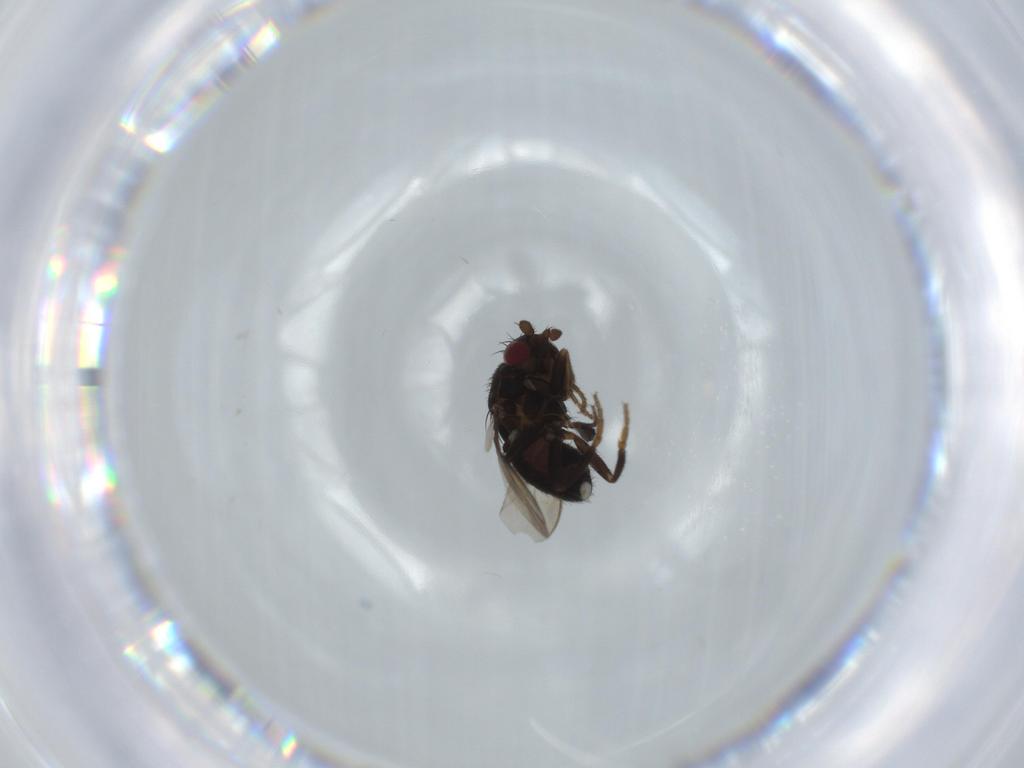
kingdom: Animalia
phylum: Arthropoda
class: Insecta
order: Diptera
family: Sphaeroceridae
